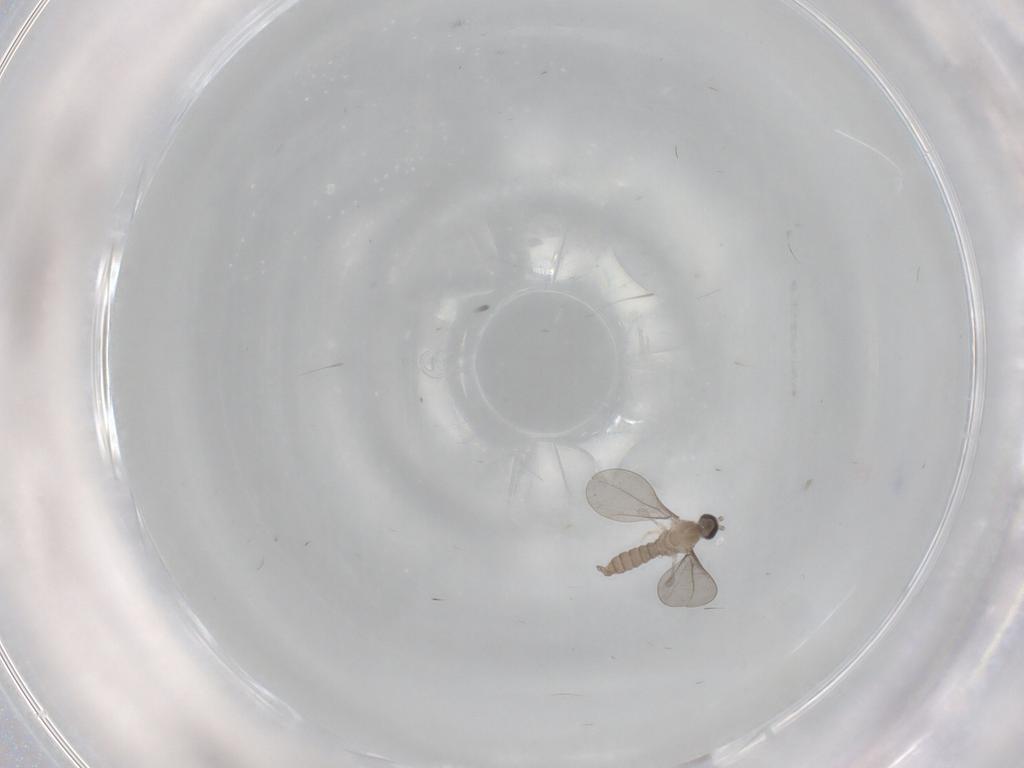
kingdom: Animalia
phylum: Arthropoda
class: Insecta
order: Diptera
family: Cecidomyiidae
